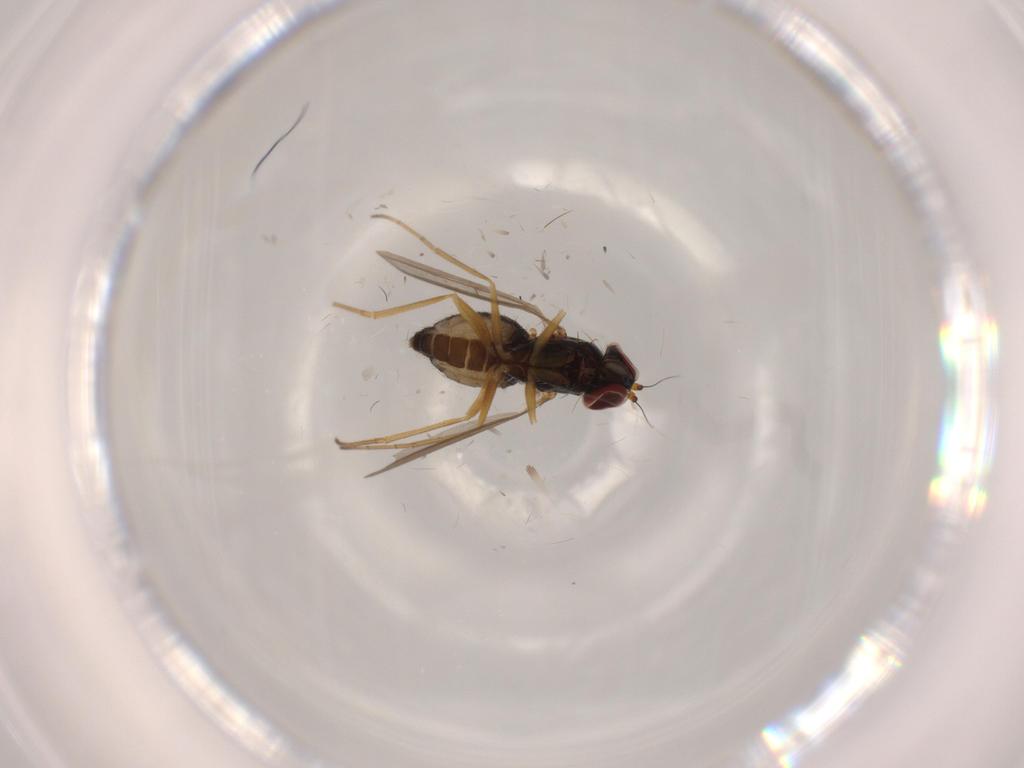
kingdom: Animalia
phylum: Arthropoda
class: Insecta
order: Diptera
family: Dolichopodidae
